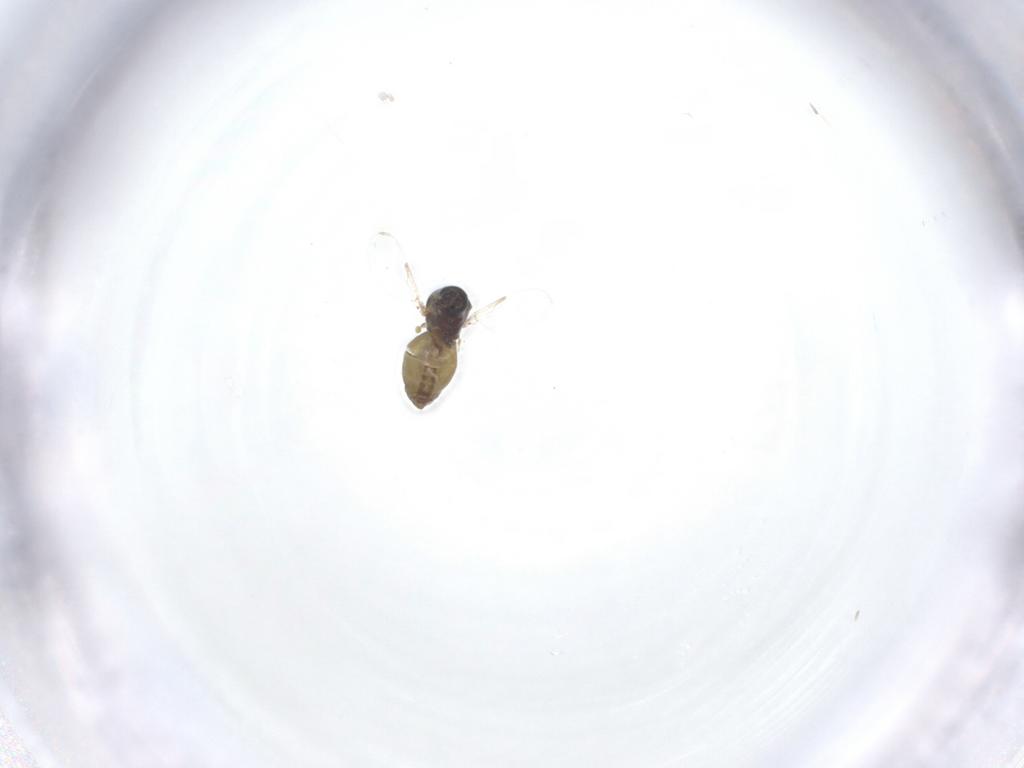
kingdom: Animalia
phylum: Arthropoda
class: Insecta
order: Diptera
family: Ceratopogonidae
